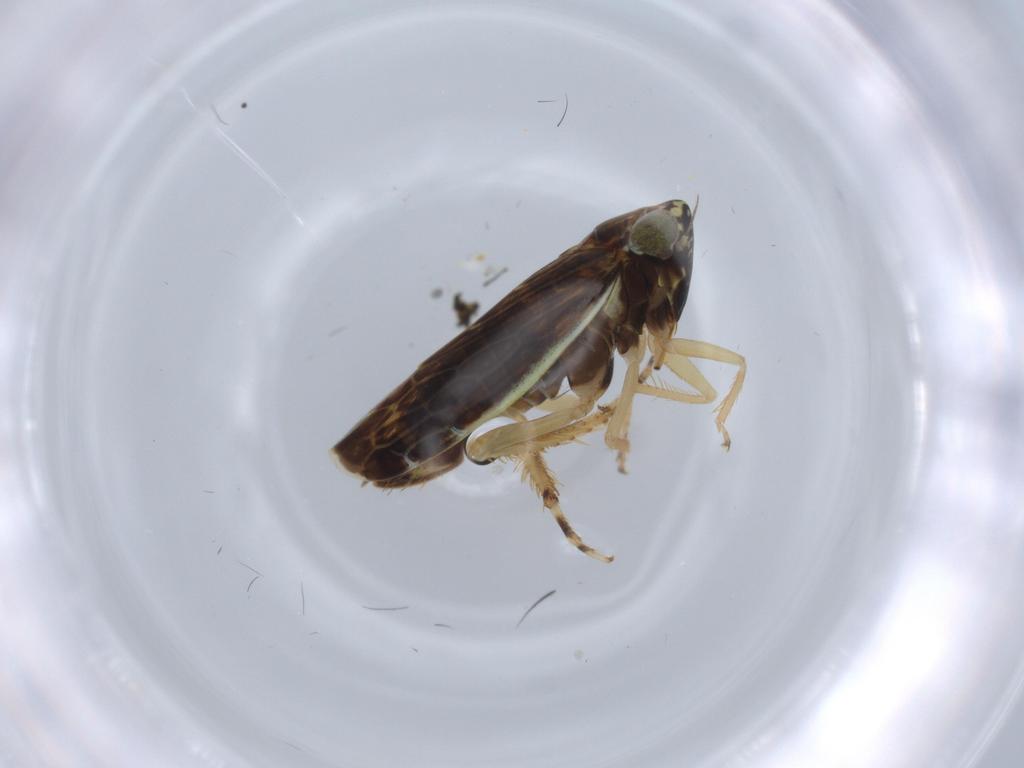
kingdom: Animalia
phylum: Arthropoda
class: Insecta
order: Hemiptera
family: Cicadellidae
